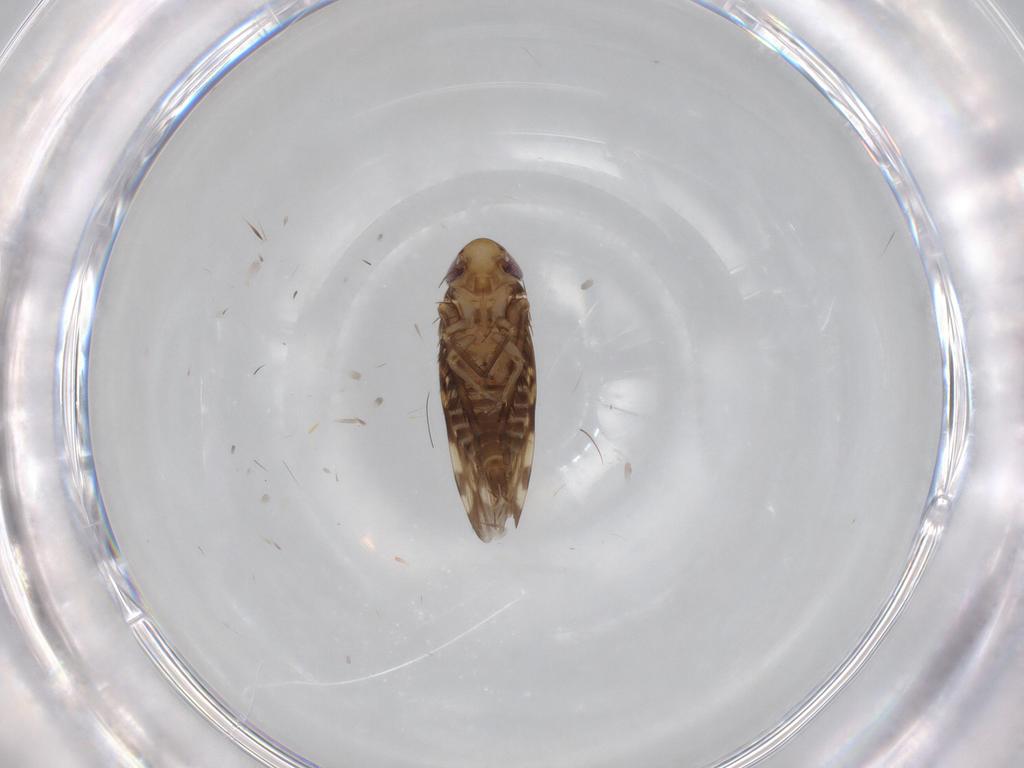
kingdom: Animalia
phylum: Arthropoda
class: Insecta
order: Hemiptera
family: Cicadellidae
